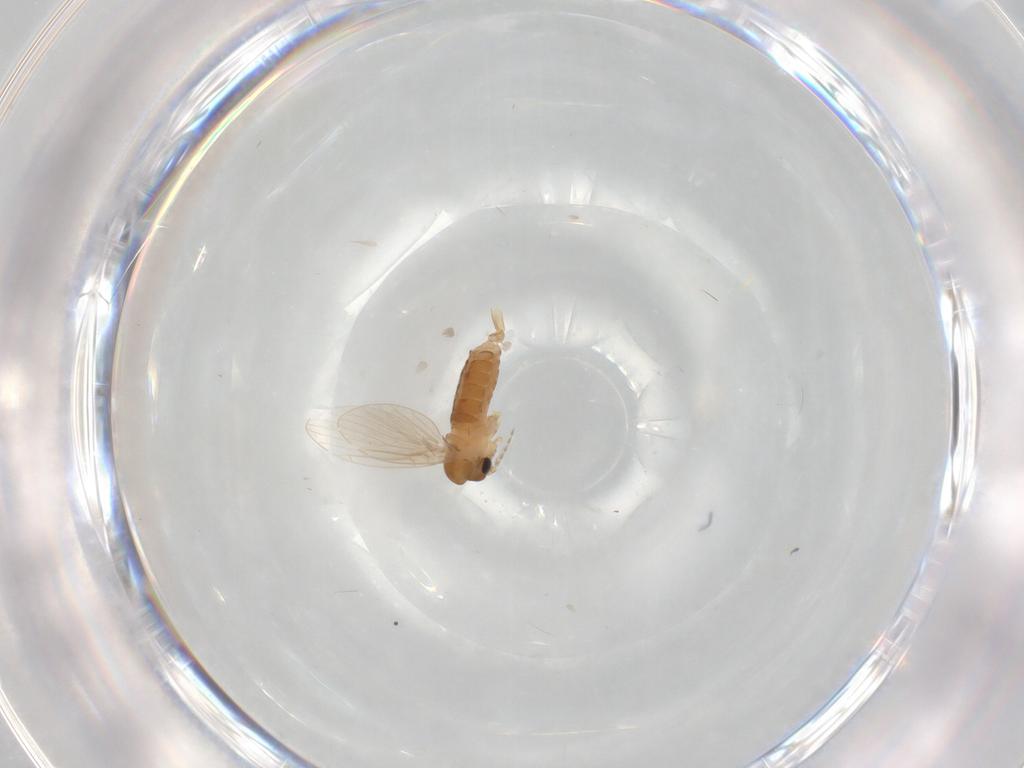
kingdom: Animalia
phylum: Arthropoda
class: Insecta
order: Diptera
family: Psychodidae
